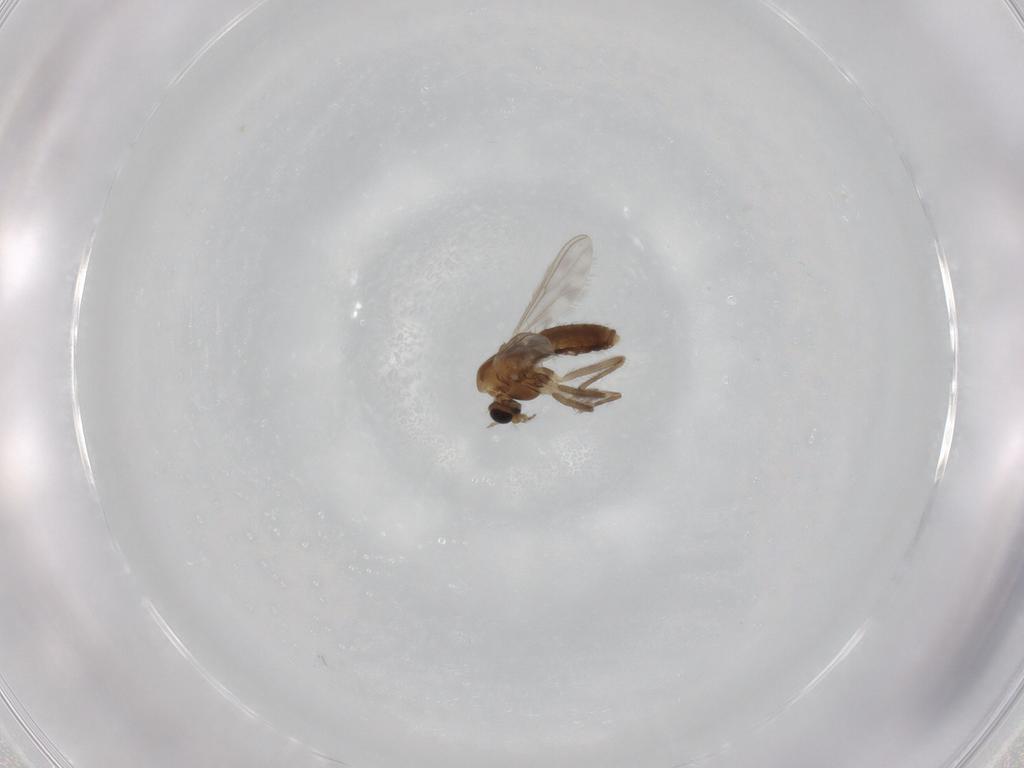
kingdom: Animalia
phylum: Arthropoda
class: Insecta
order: Diptera
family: Chironomidae
